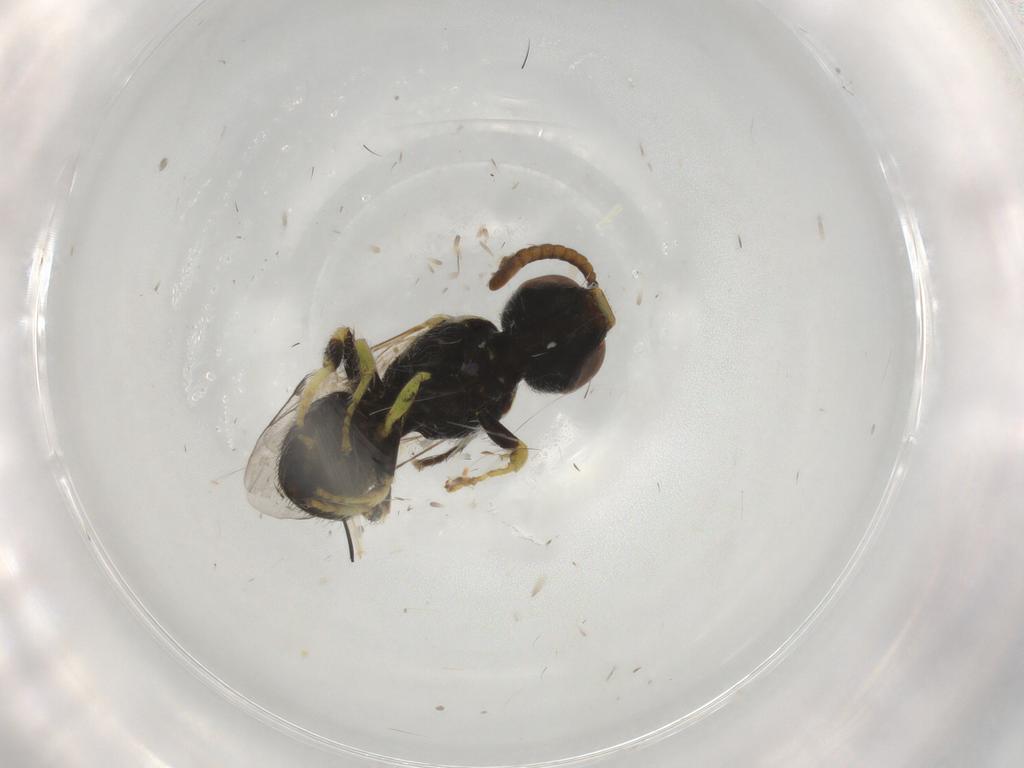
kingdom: Animalia
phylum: Arthropoda
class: Insecta
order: Hymenoptera
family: Halictidae
